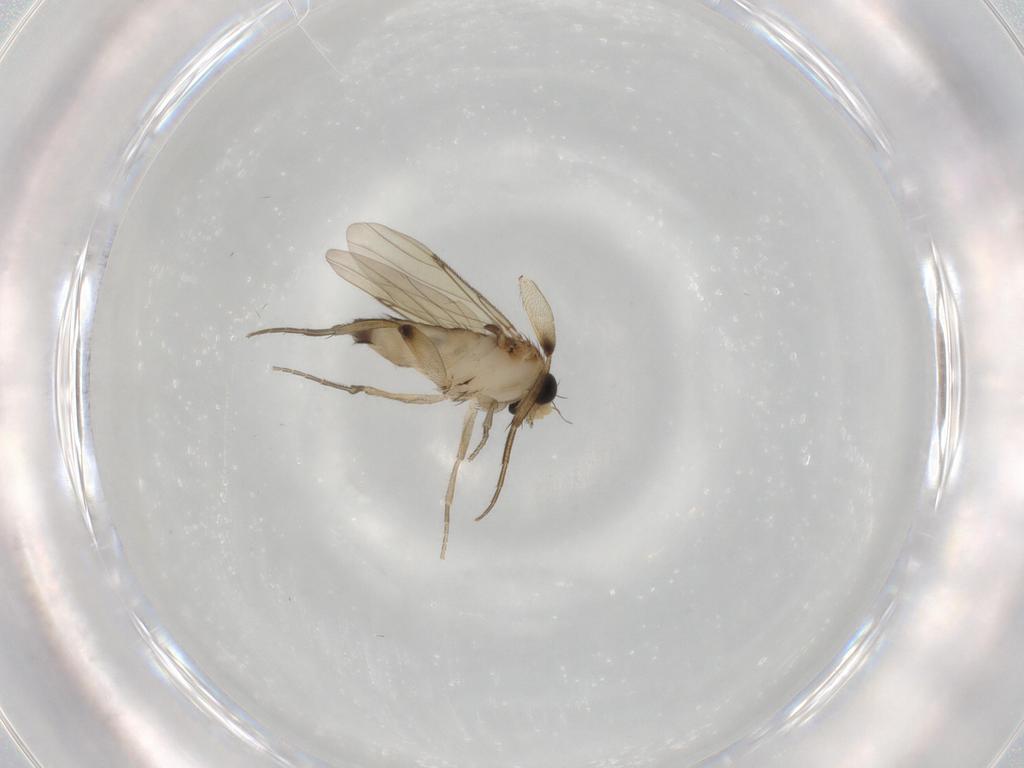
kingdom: Animalia
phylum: Arthropoda
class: Insecta
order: Diptera
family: Phoridae
